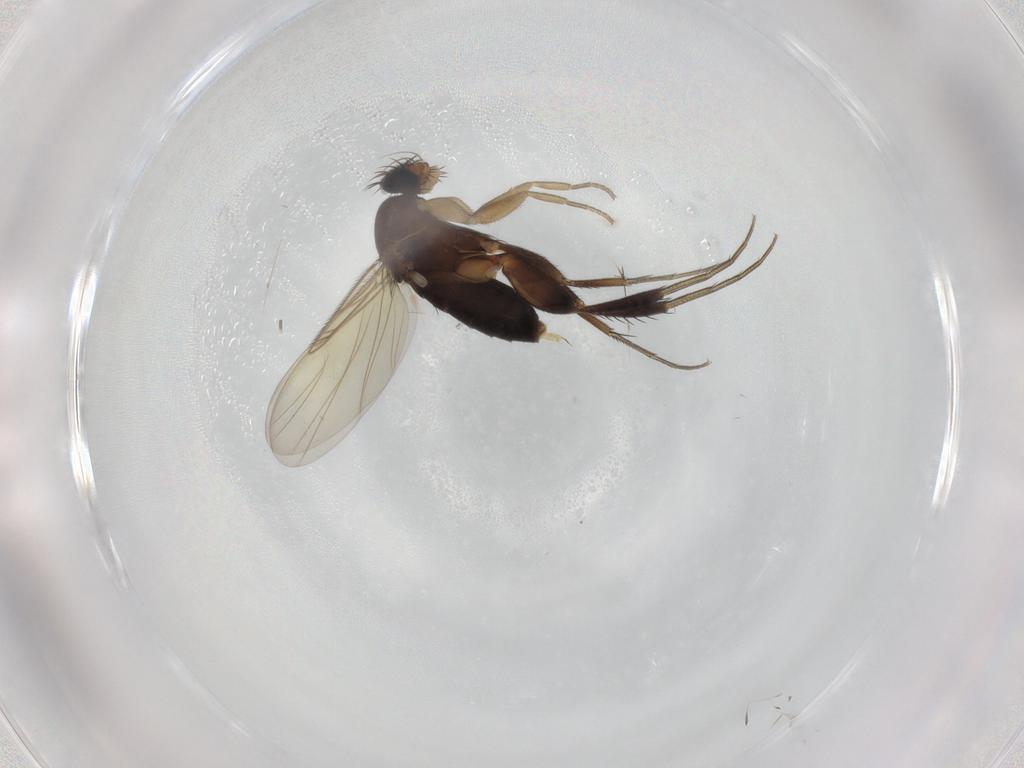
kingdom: Animalia
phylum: Arthropoda
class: Insecta
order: Diptera
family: Phoridae
